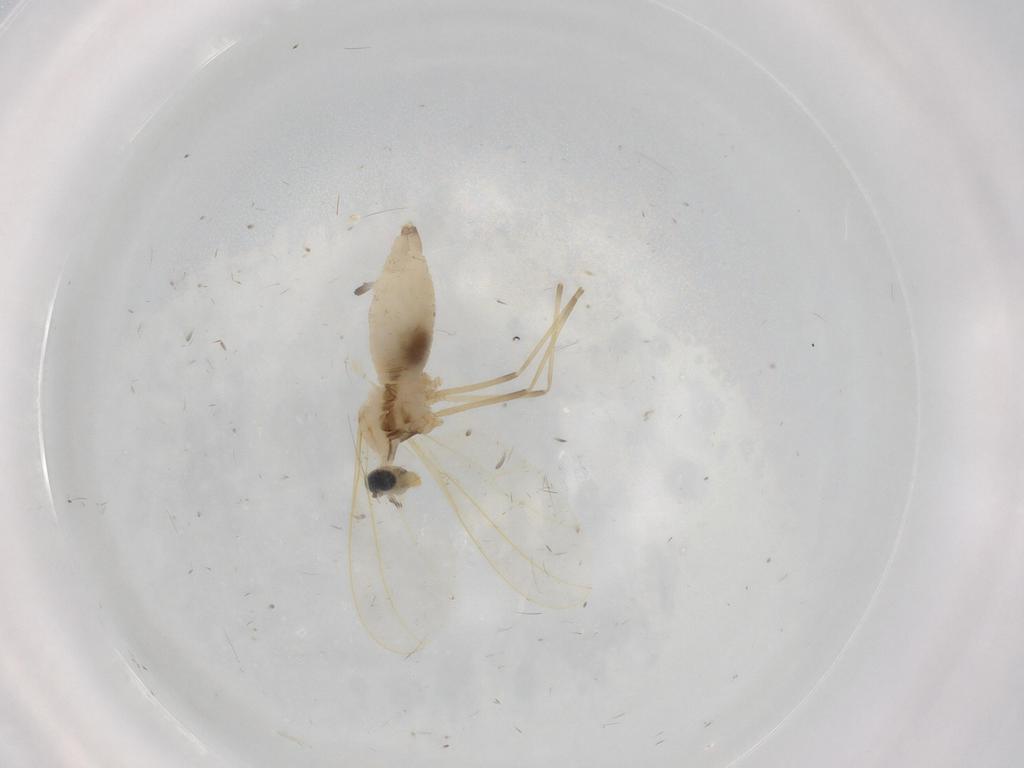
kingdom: Animalia
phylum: Arthropoda
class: Insecta
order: Diptera
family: Cecidomyiidae
